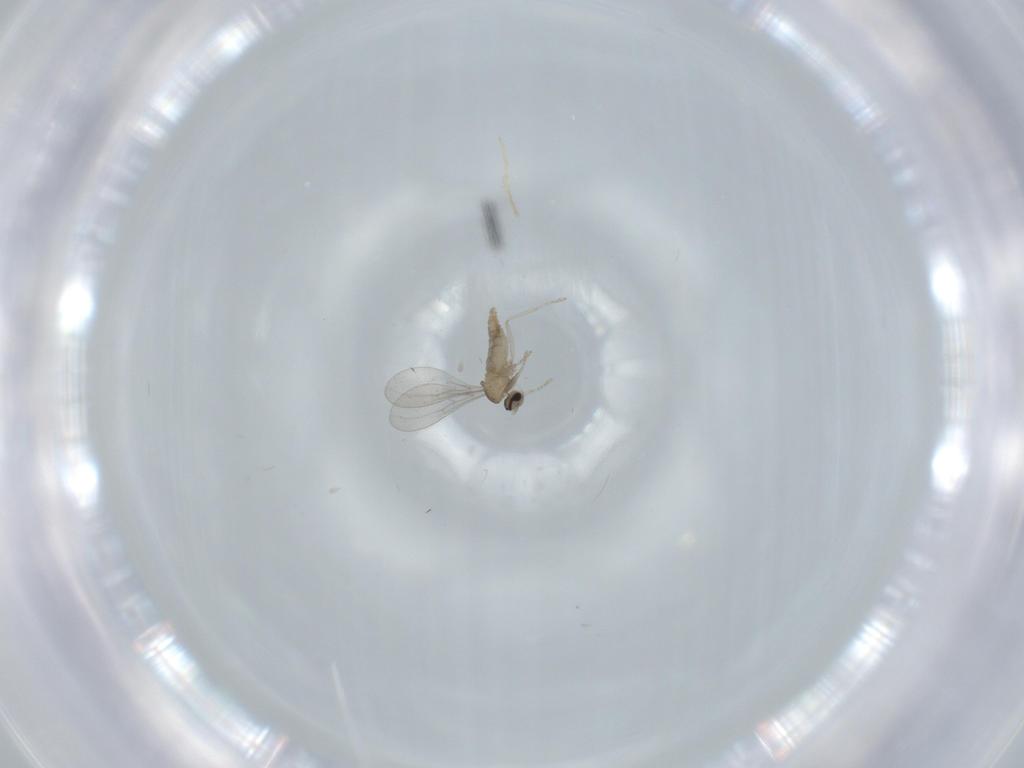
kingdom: Animalia
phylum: Arthropoda
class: Insecta
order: Diptera
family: Cecidomyiidae
